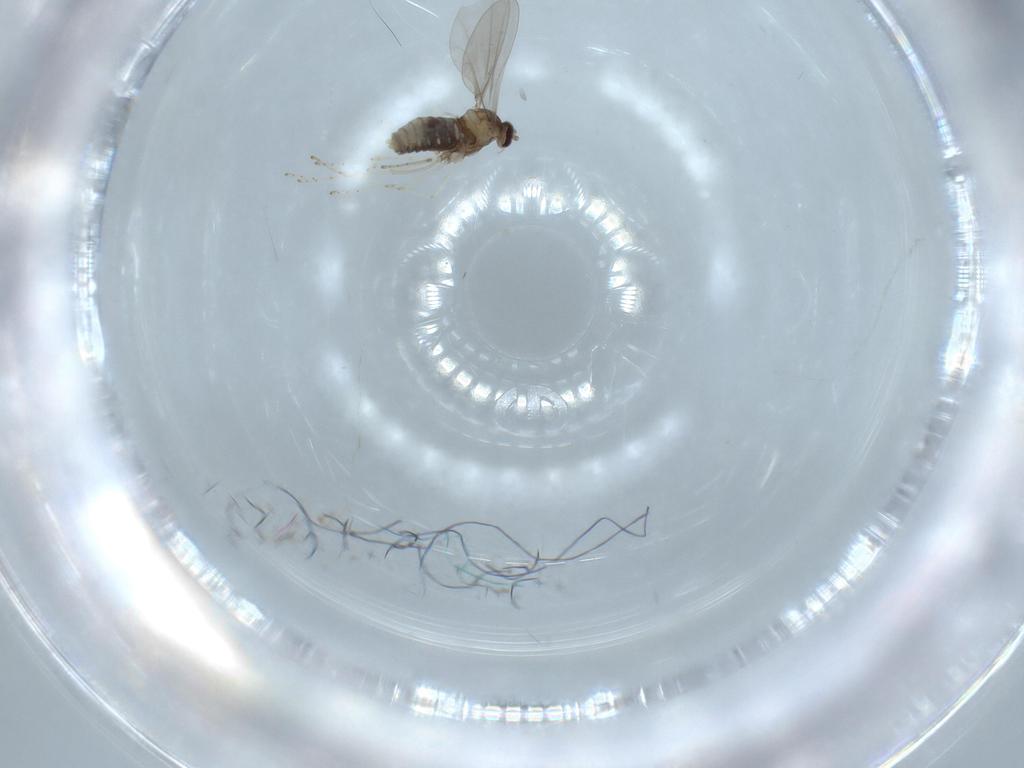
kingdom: Animalia
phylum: Arthropoda
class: Insecta
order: Diptera
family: Cecidomyiidae
